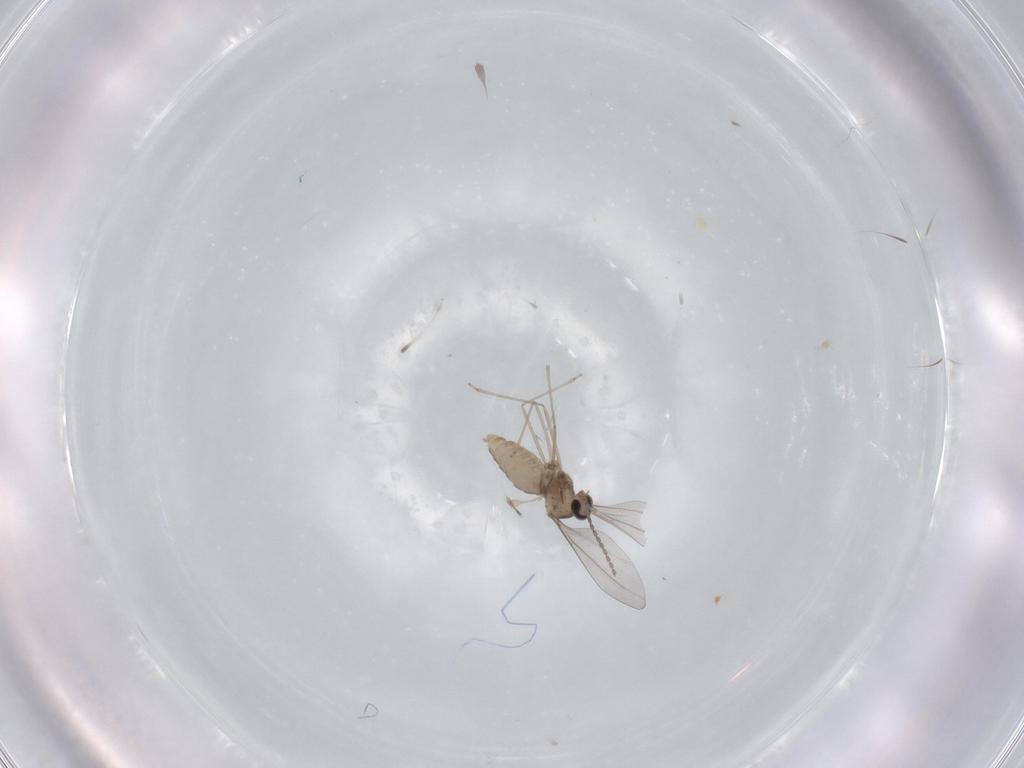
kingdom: Animalia
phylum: Arthropoda
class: Insecta
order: Diptera
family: Cecidomyiidae
